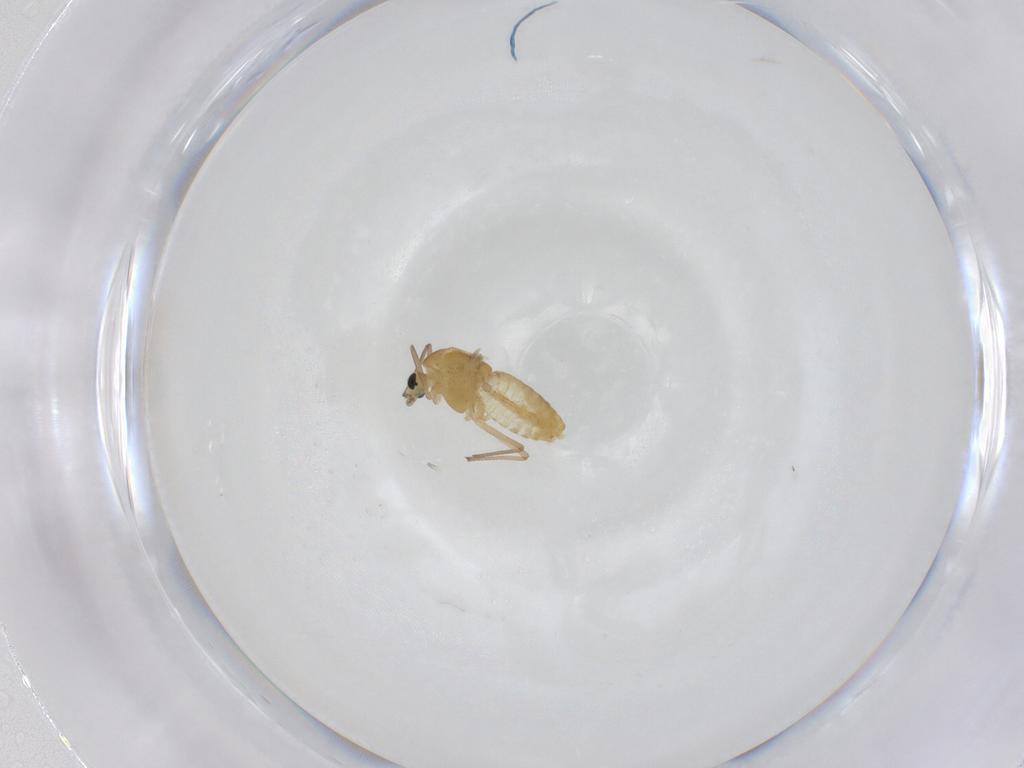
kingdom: Animalia
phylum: Arthropoda
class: Insecta
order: Diptera
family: Chironomidae
